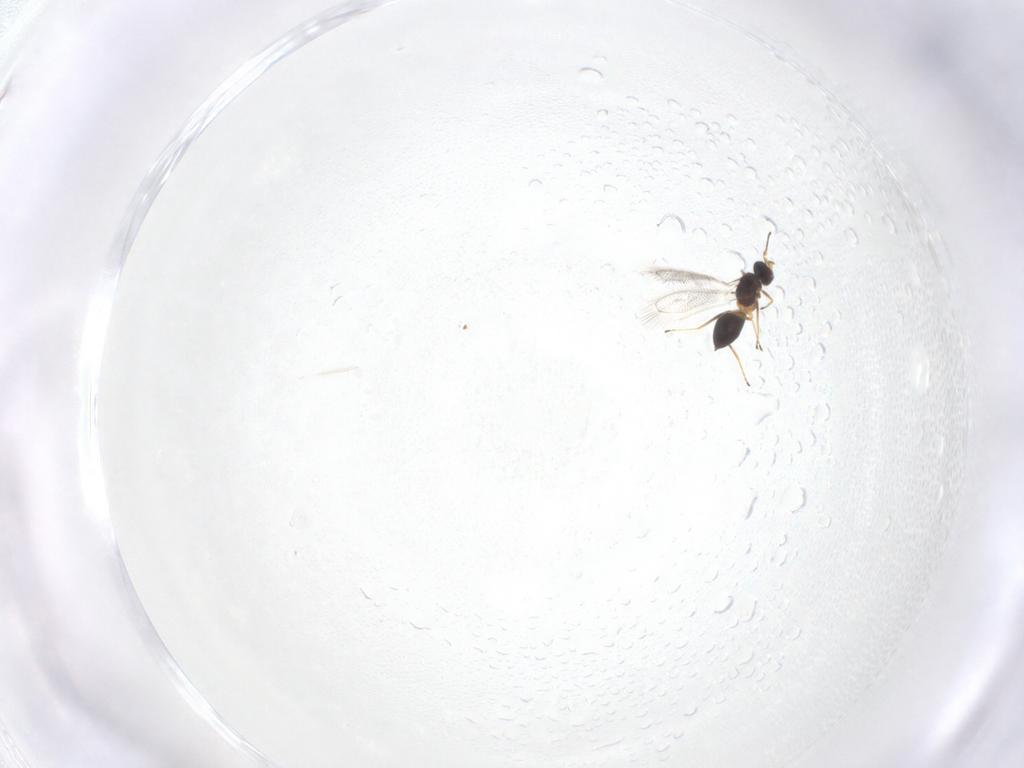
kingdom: Animalia
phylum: Arthropoda
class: Insecta
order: Hymenoptera
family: Mymaridae
